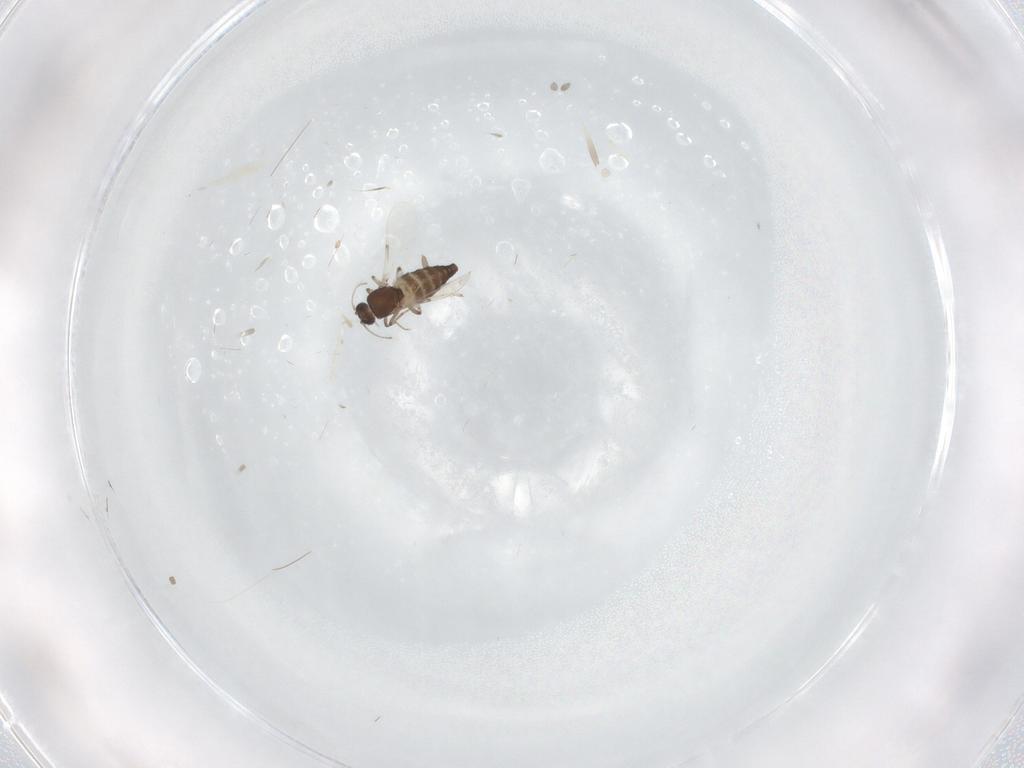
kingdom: Animalia
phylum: Arthropoda
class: Insecta
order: Diptera
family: Ceratopogonidae
